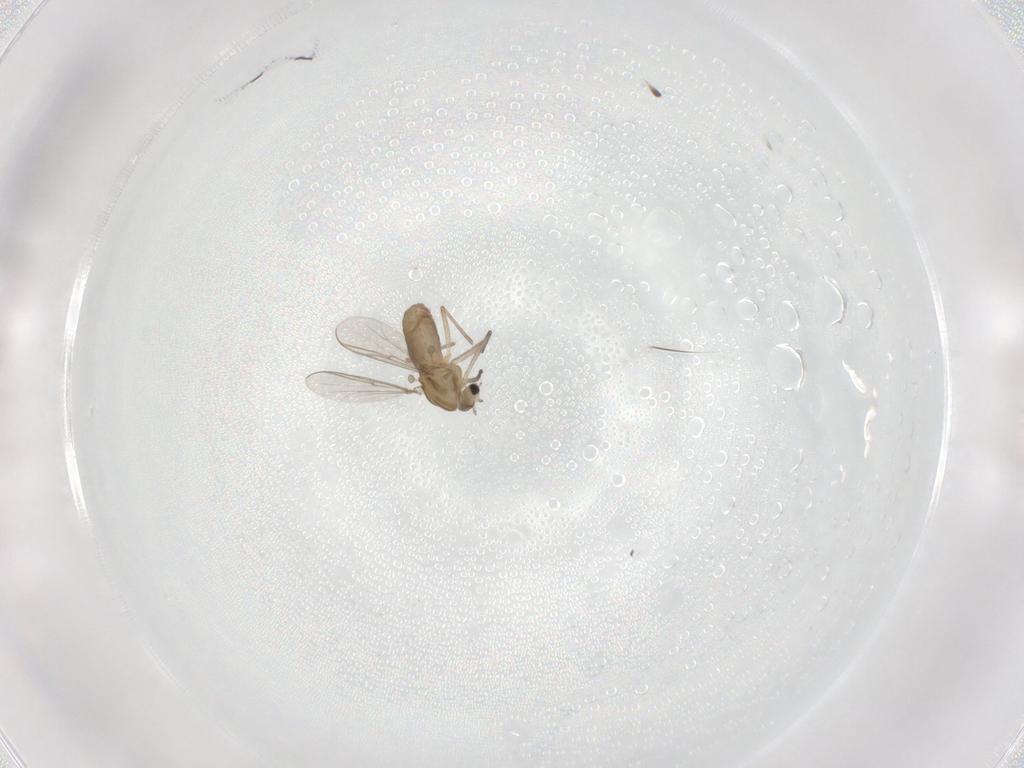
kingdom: Animalia
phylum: Arthropoda
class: Insecta
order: Diptera
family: Chironomidae
